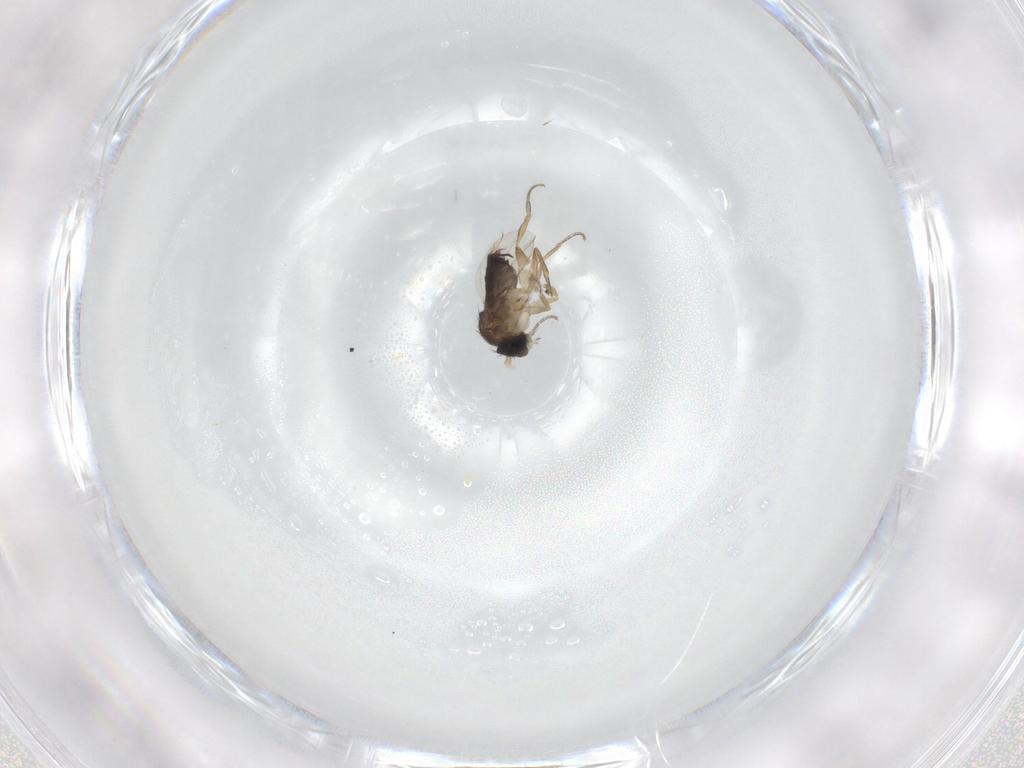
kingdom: Animalia
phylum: Arthropoda
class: Insecta
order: Diptera
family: Phoridae
